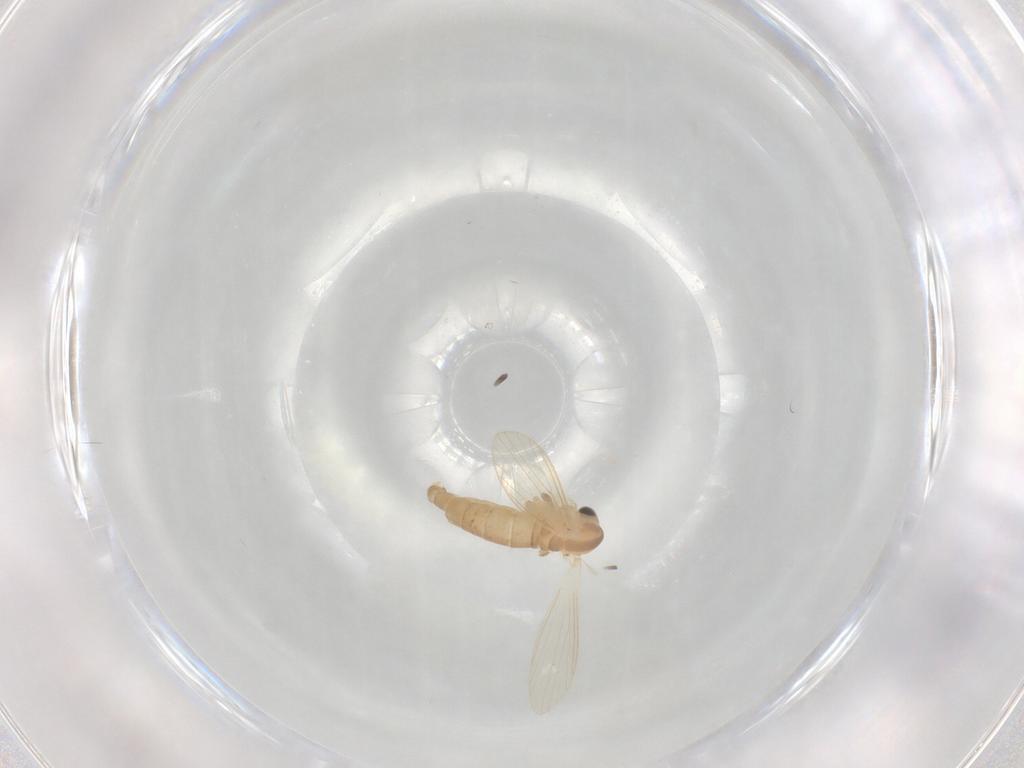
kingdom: Animalia
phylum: Arthropoda
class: Insecta
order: Diptera
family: Psychodidae
